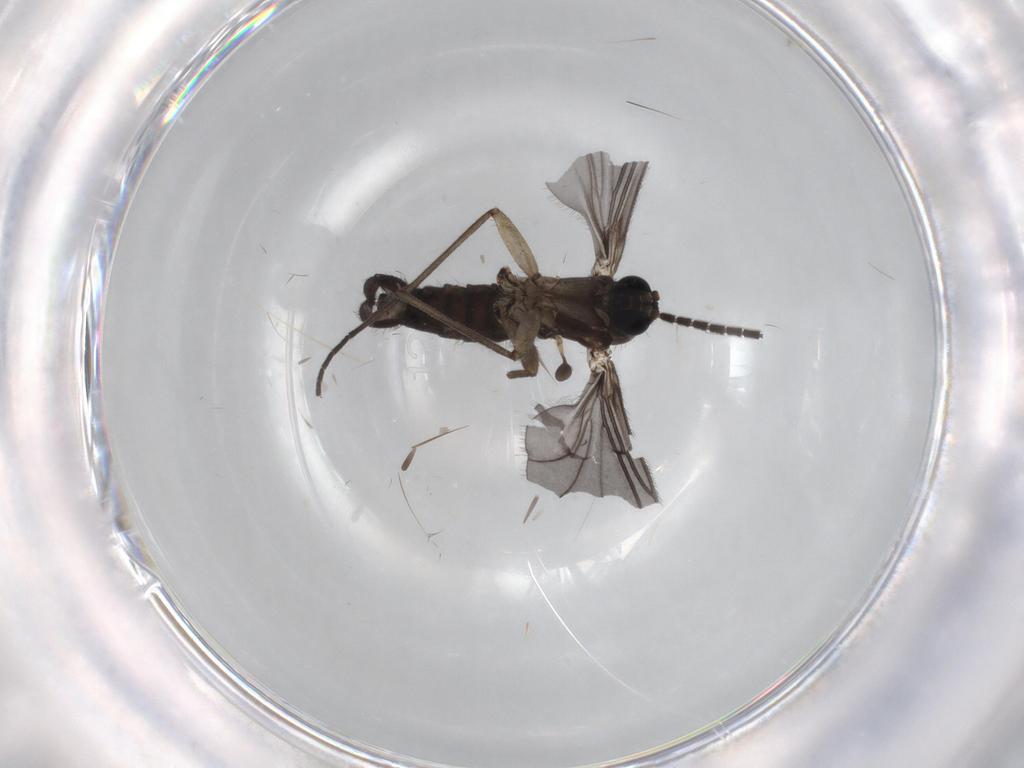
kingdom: Animalia
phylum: Arthropoda
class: Insecta
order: Diptera
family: Sciaridae
